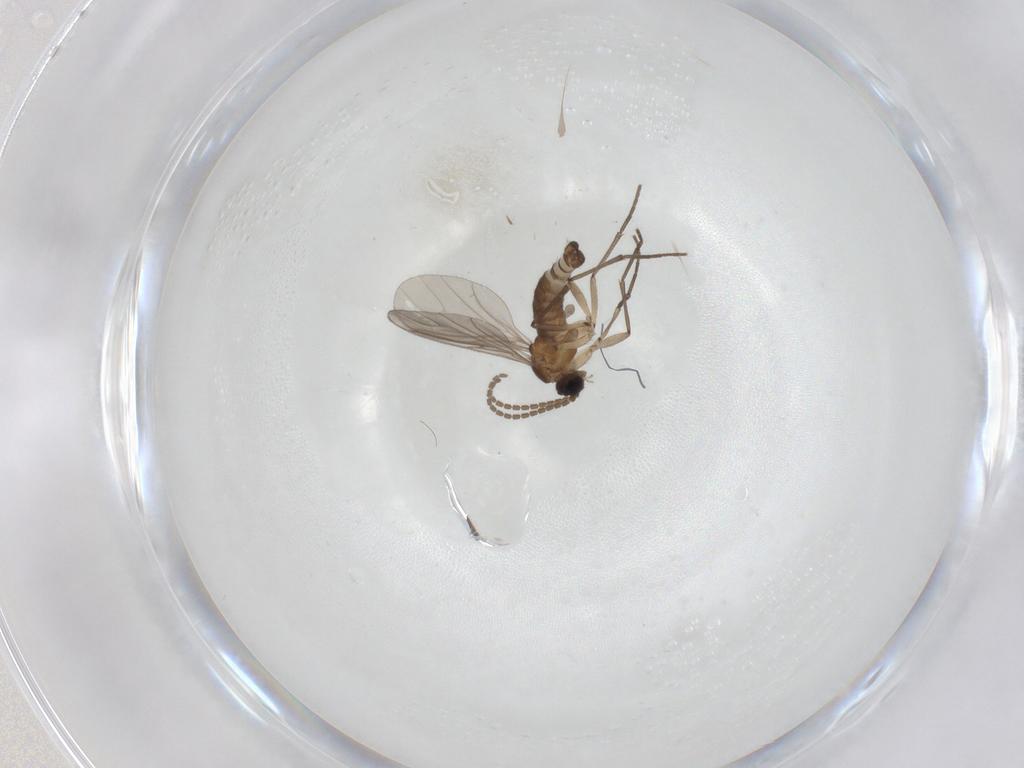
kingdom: Animalia
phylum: Arthropoda
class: Insecta
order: Diptera
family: Sciaridae
